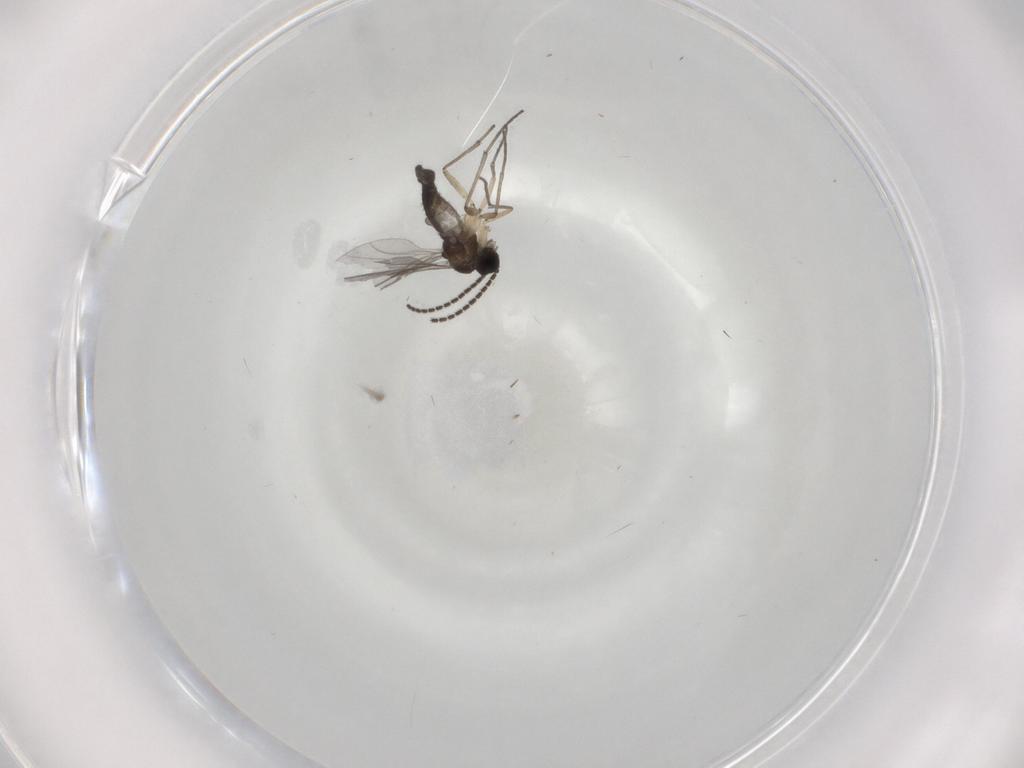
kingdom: Animalia
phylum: Arthropoda
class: Insecta
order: Diptera
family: Sciaridae
